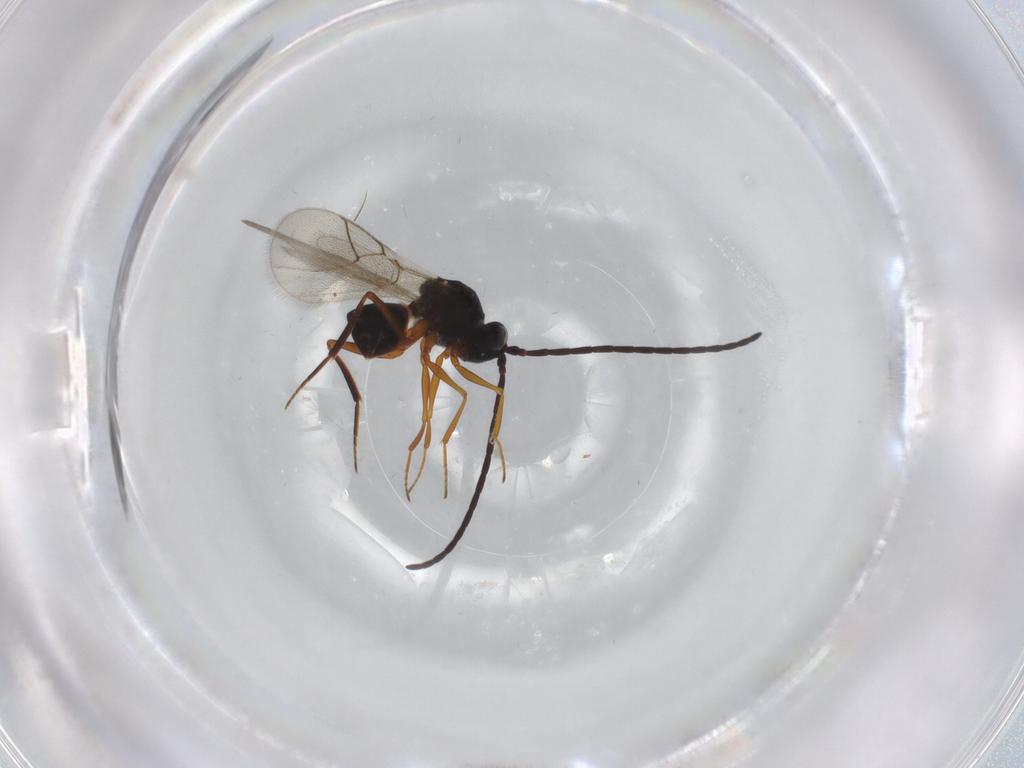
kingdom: Animalia
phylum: Arthropoda
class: Insecta
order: Hymenoptera
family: Figitidae
